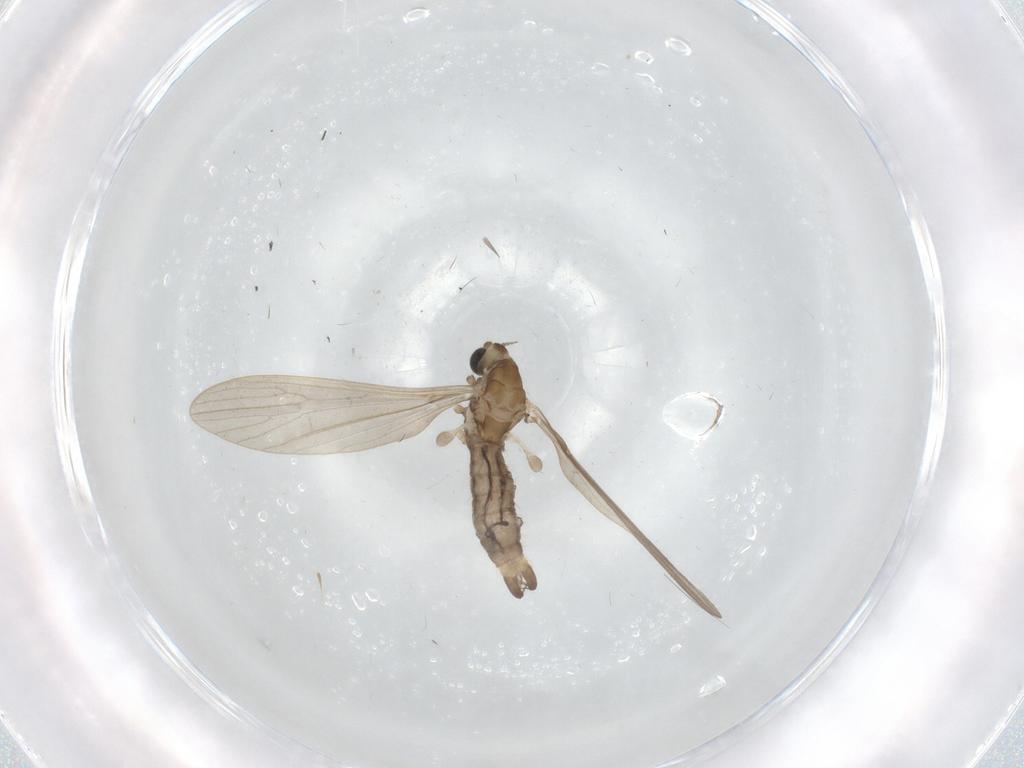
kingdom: Animalia
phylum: Arthropoda
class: Insecta
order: Diptera
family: Limoniidae
